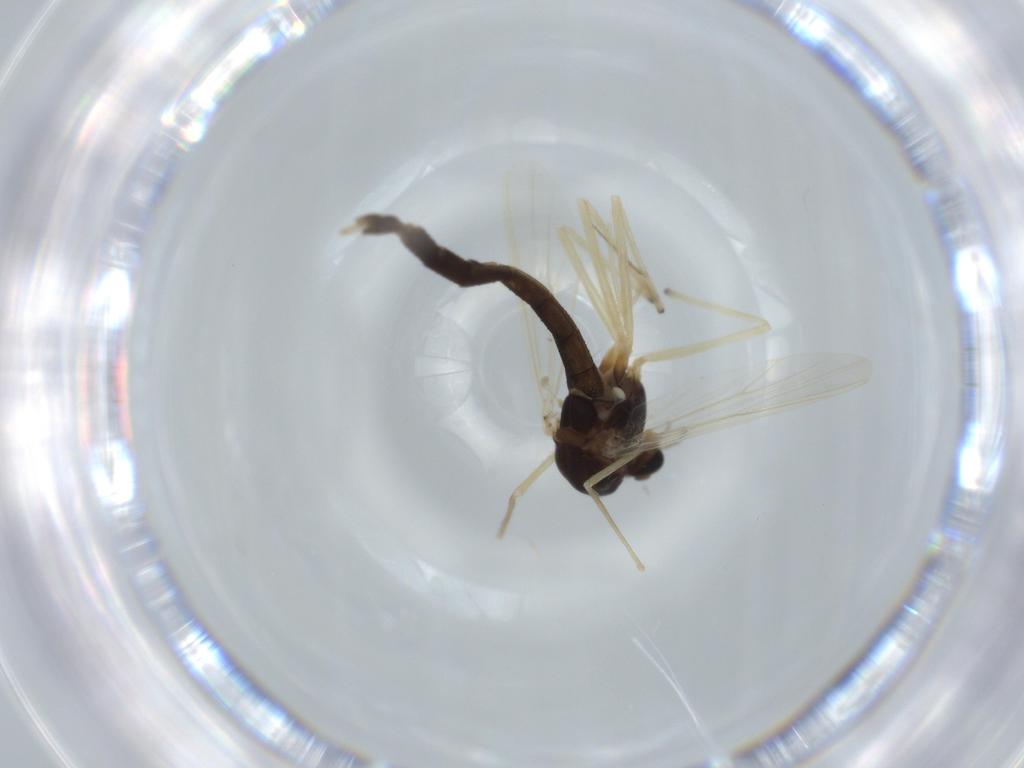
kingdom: Animalia
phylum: Arthropoda
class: Insecta
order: Diptera
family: Chironomidae
